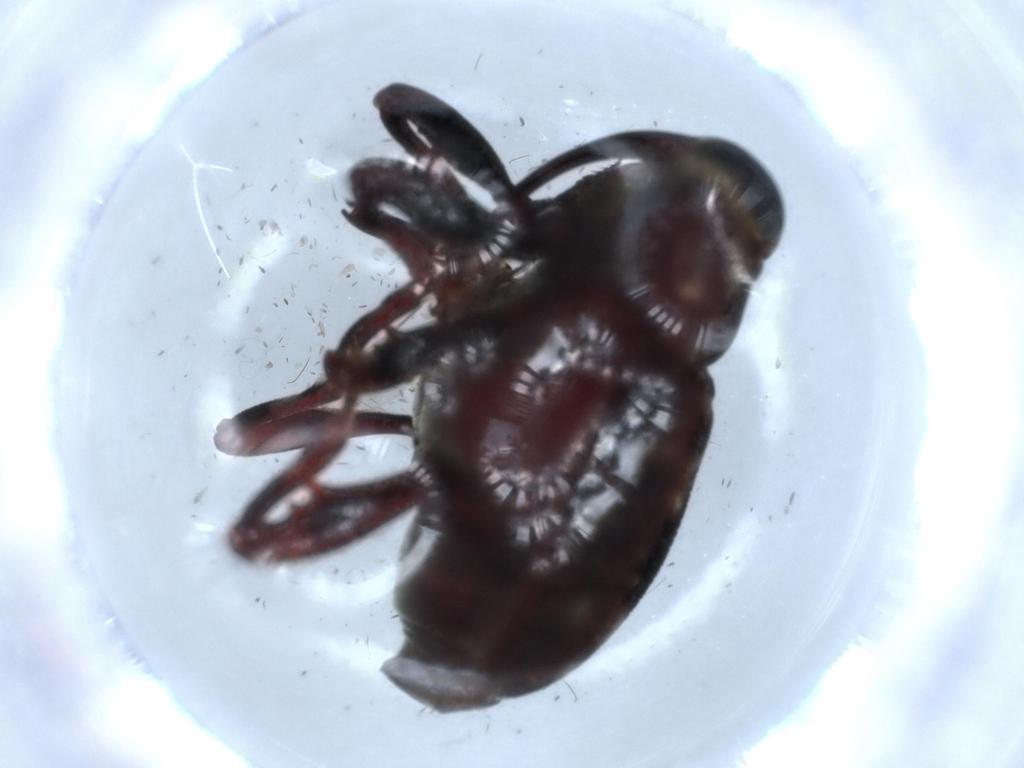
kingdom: Animalia
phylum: Arthropoda
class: Insecta
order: Coleoptera
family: Curculionidae
